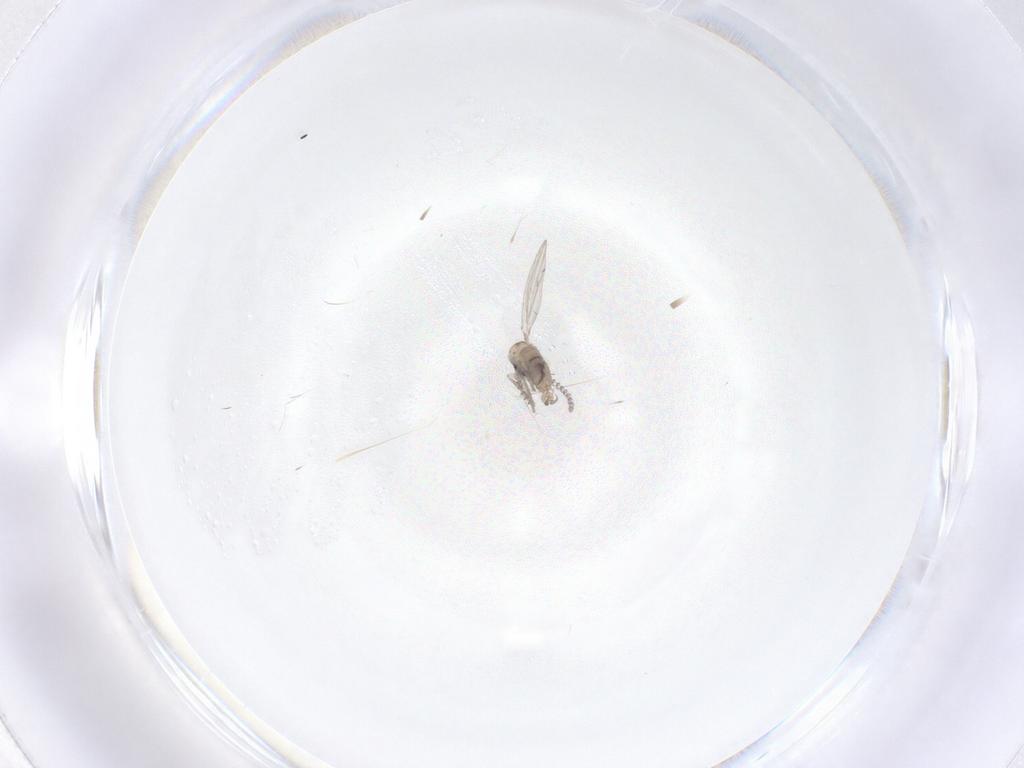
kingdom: Animalia
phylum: Arthropoda
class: Insecta
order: Diptera
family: Psychodidae
